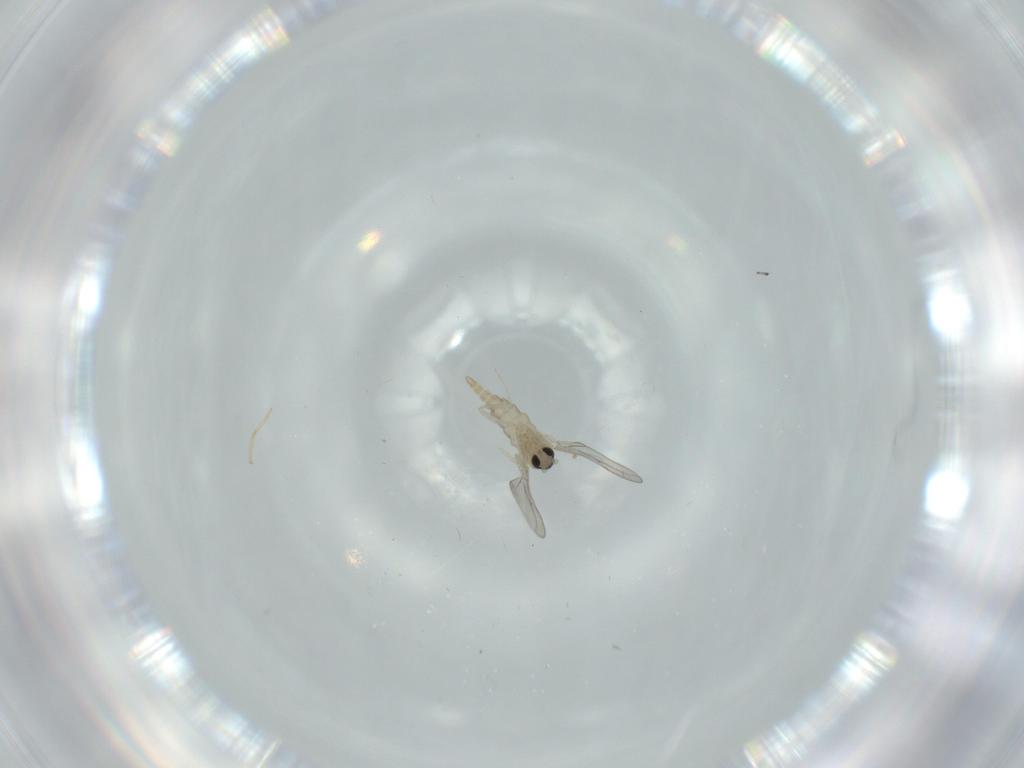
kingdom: Animalia
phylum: Arthropoda
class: Insecta
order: Diptera
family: Cecidomyiidae
